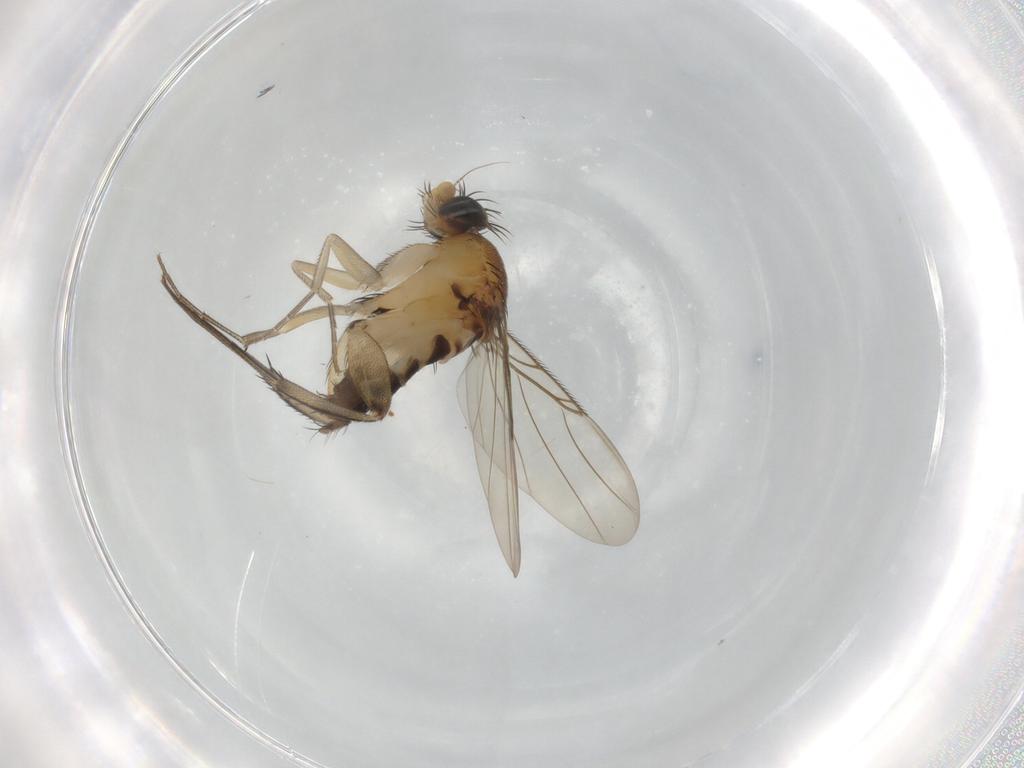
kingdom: Animalia
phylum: Arthropoda
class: Insecta
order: Diptera
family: Phoridae
